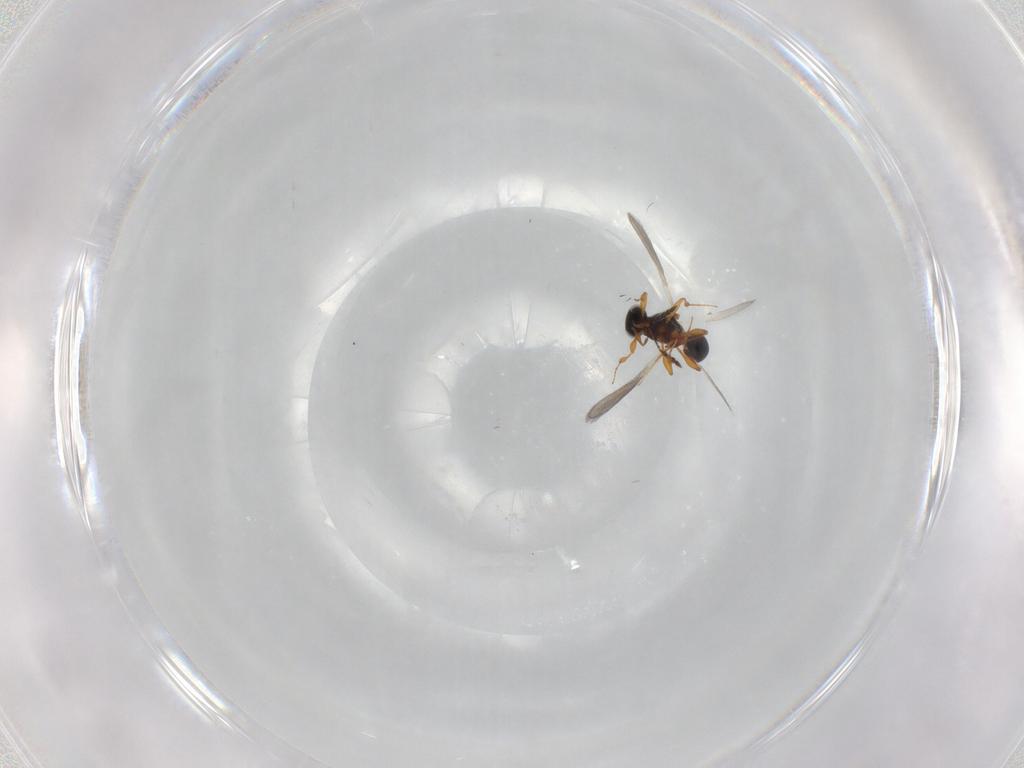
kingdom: Animalia
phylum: Arthropoda
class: Insecta
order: Hymenoptera
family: Platygastridae
